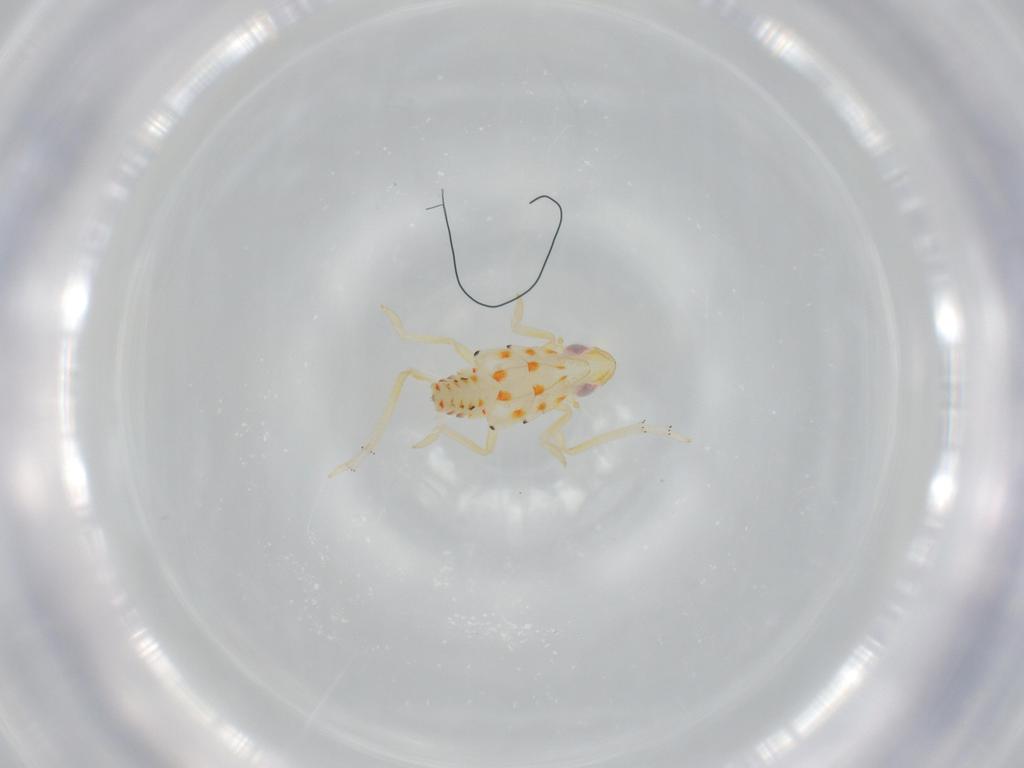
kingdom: Animalia
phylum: Arthropoda
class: Insecta
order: Hemiptera
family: Tropiduchidae
